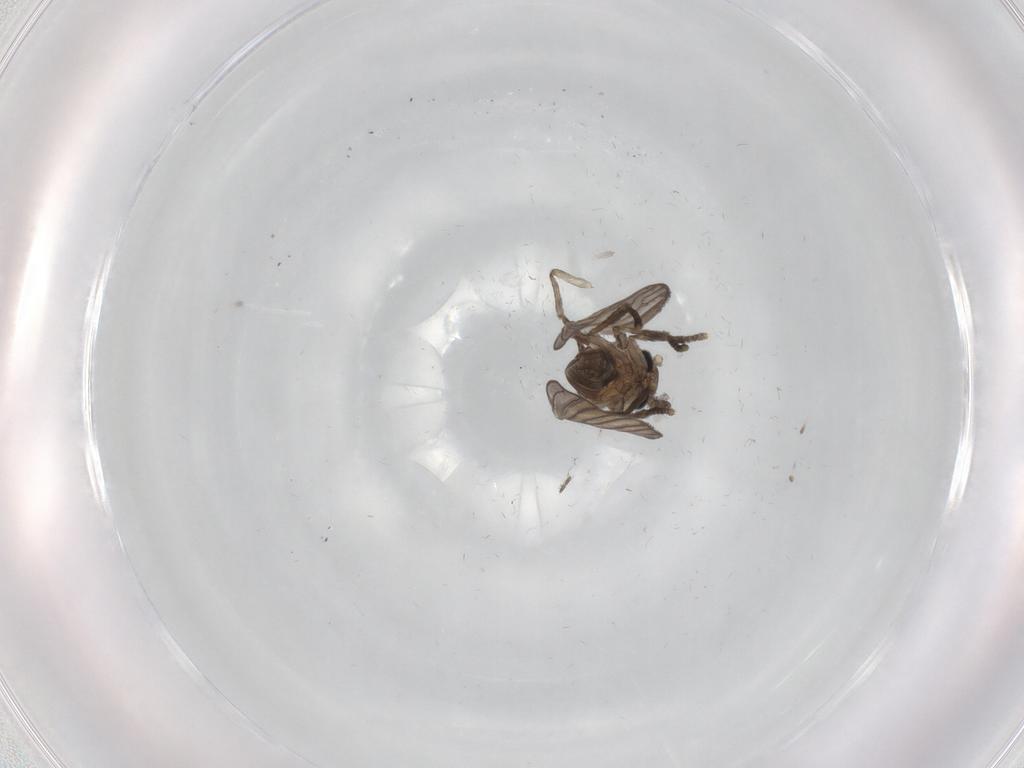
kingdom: Animalia
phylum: Arthropoda
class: Insecta
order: Diptera
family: Psychodidae
